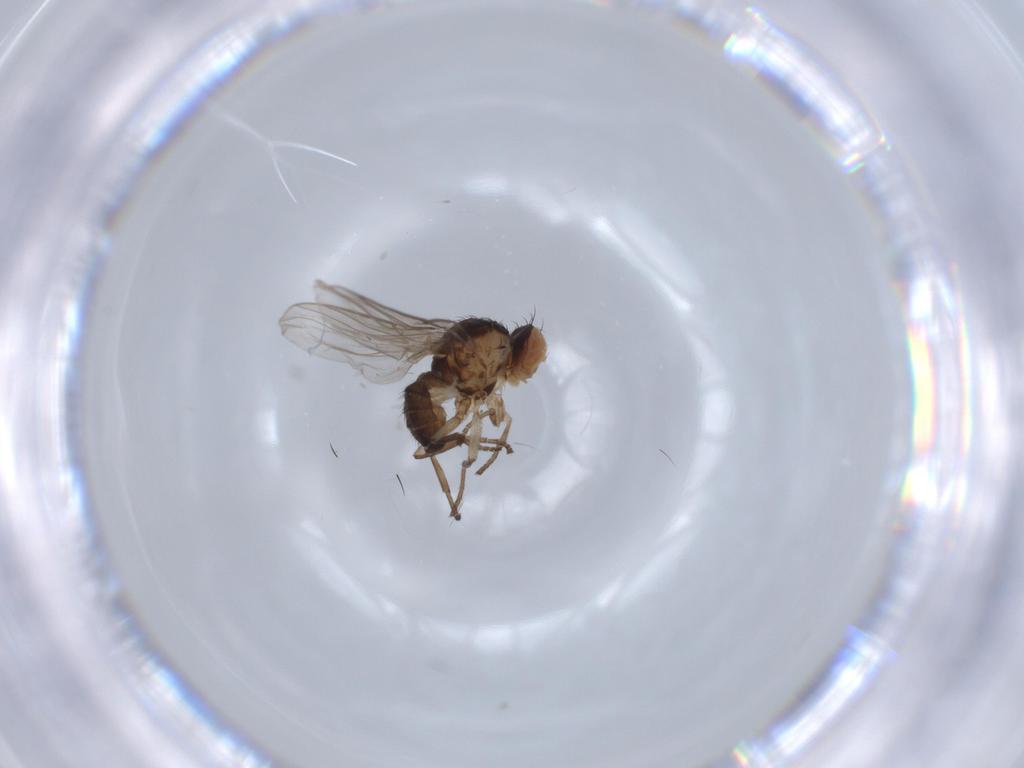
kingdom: Animalia
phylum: Arthropoda
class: Insecta
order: Diptera
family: Agromyzidae
